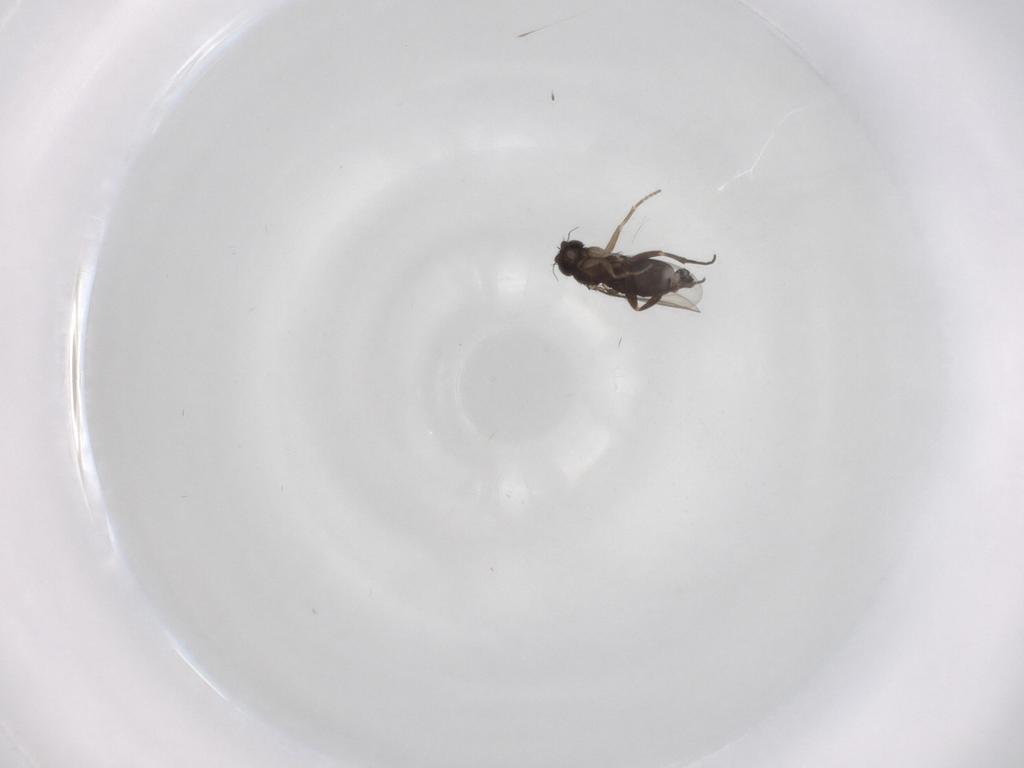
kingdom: Animalia
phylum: Arthropoda
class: Insecta
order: Diptera
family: Phoridae
